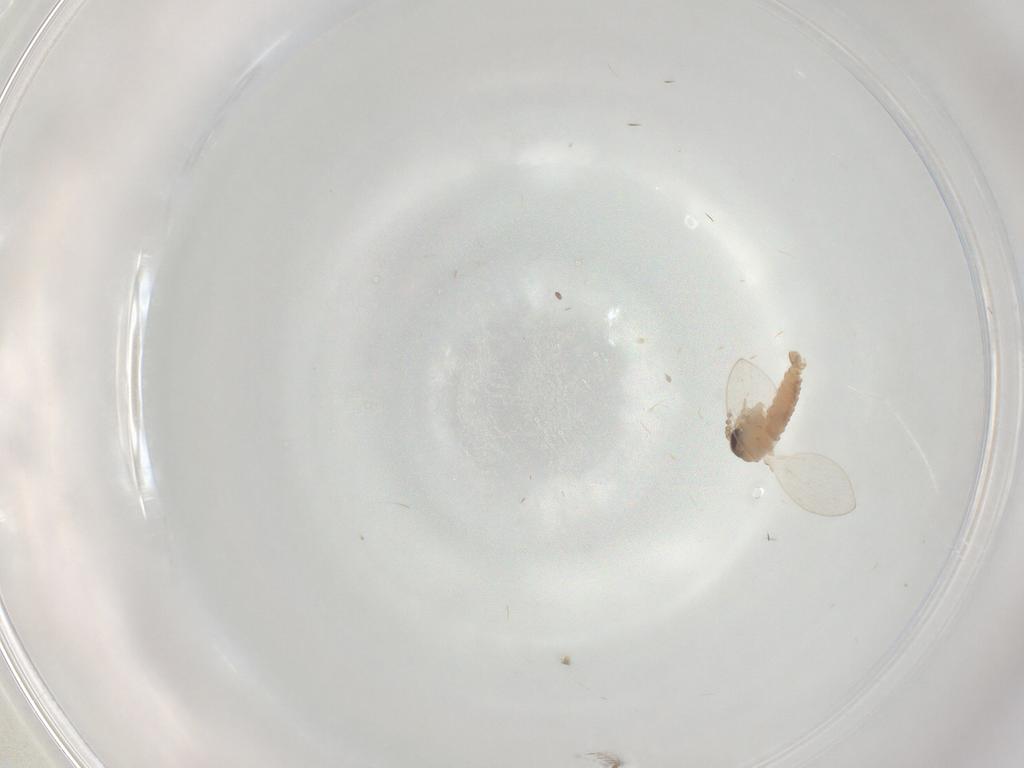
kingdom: Animalia
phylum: Arthropoda
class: Insecta
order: Diptera
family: Psychodidae
